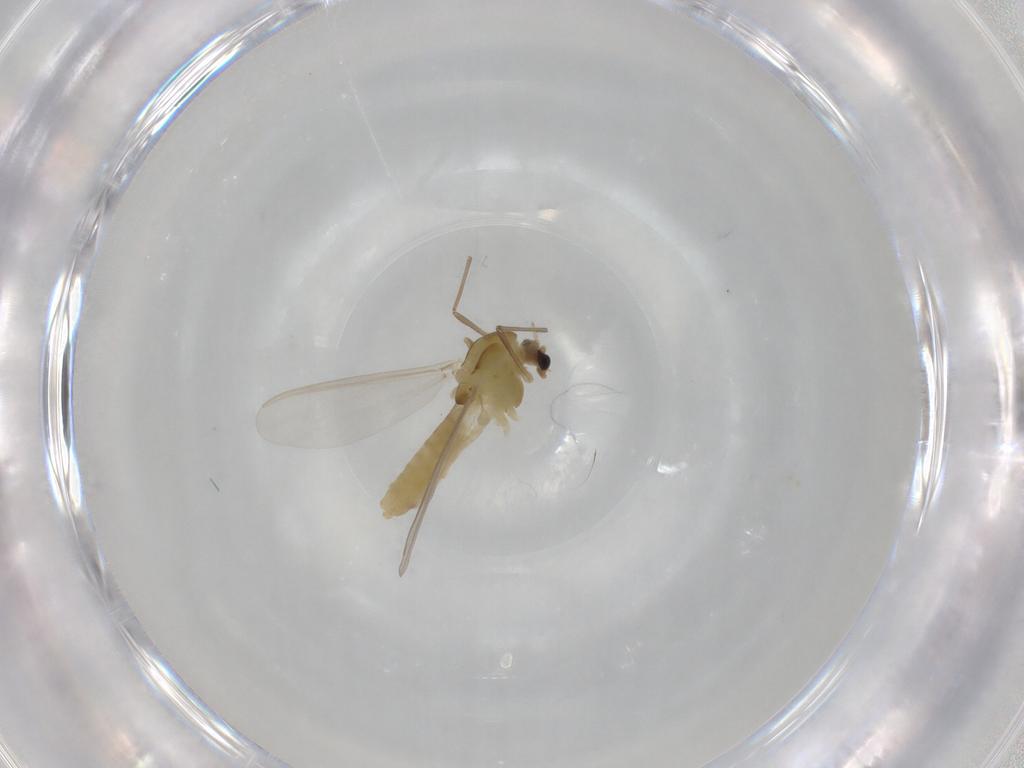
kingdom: Animalia
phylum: Arthropoda
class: Insecta
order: Diptera
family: Chironomidae
